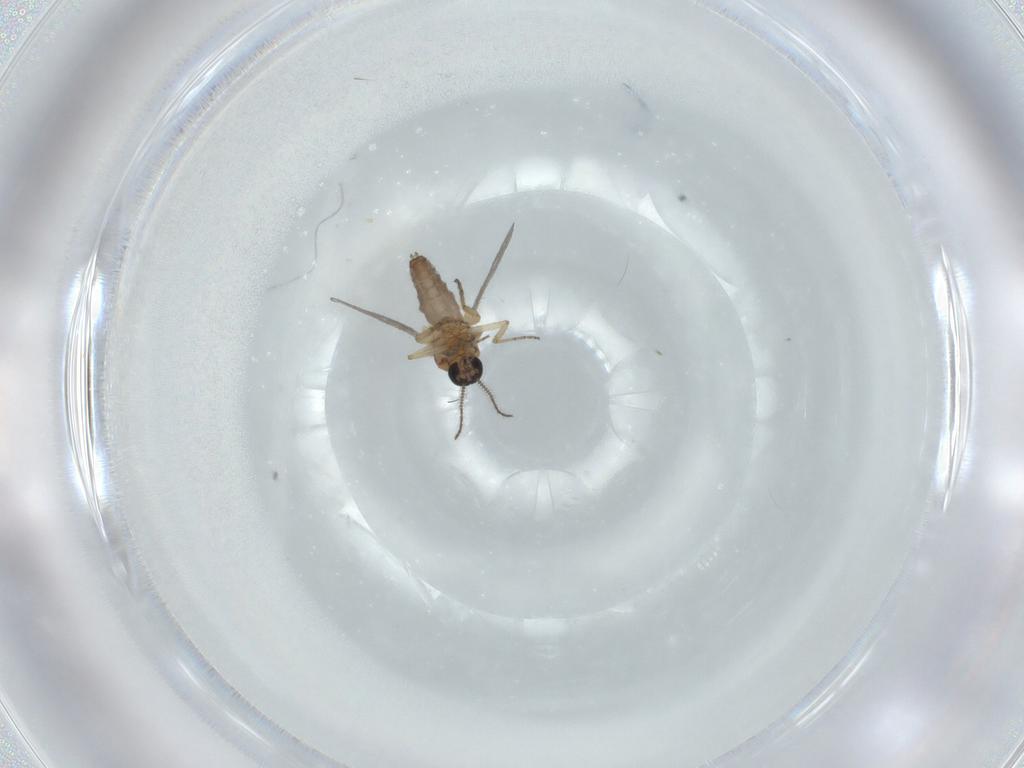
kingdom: Animalia
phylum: Arthropoda
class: Insecta
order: Diptera
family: Ceratopogonidae
